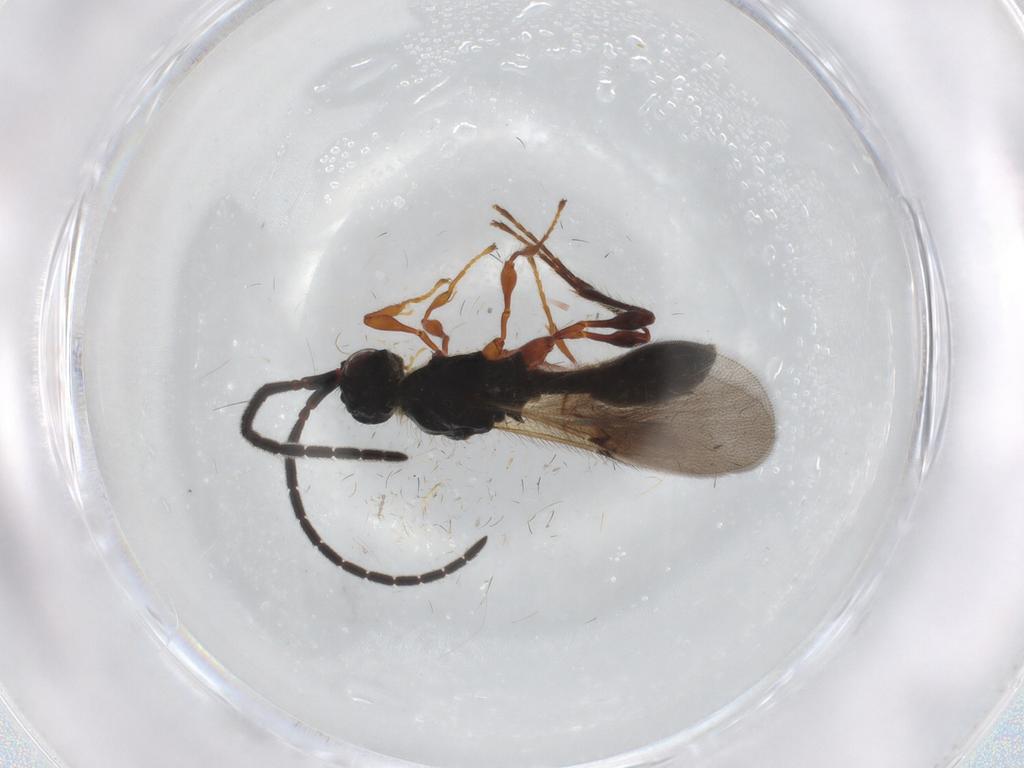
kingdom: Animalia
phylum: Arthropoda
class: Insecta
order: Hymenoptera
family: Diapriidae
